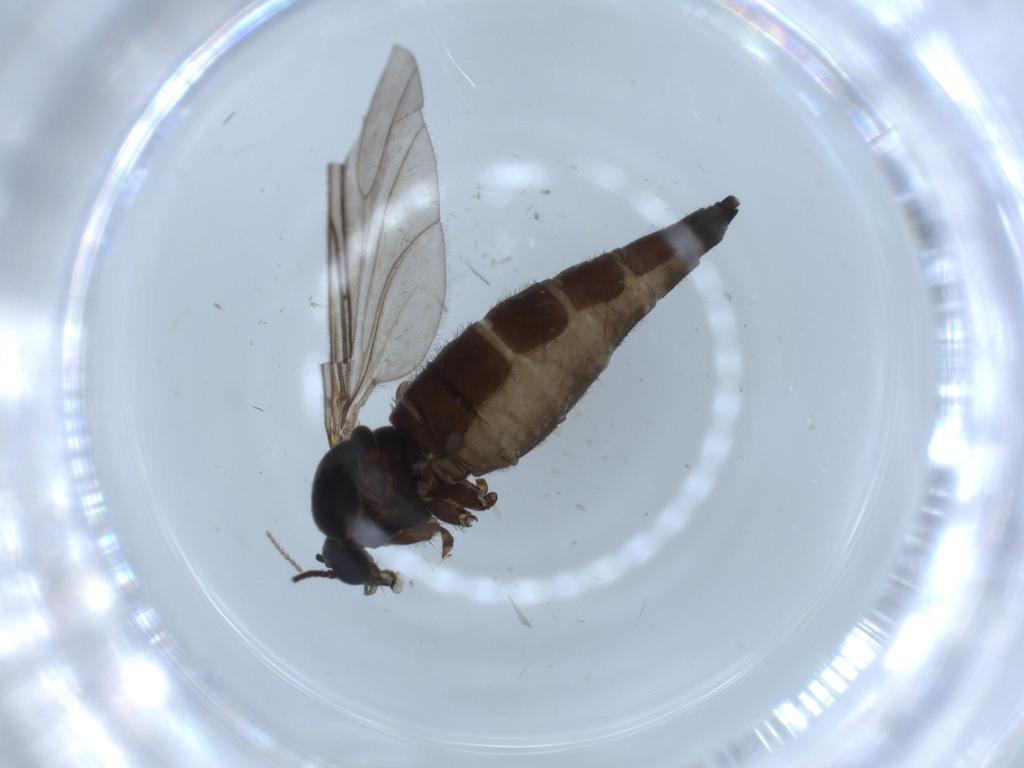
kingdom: Animalia
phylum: Arthropoda
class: Insecta
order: Diptera
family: Sciaridae
